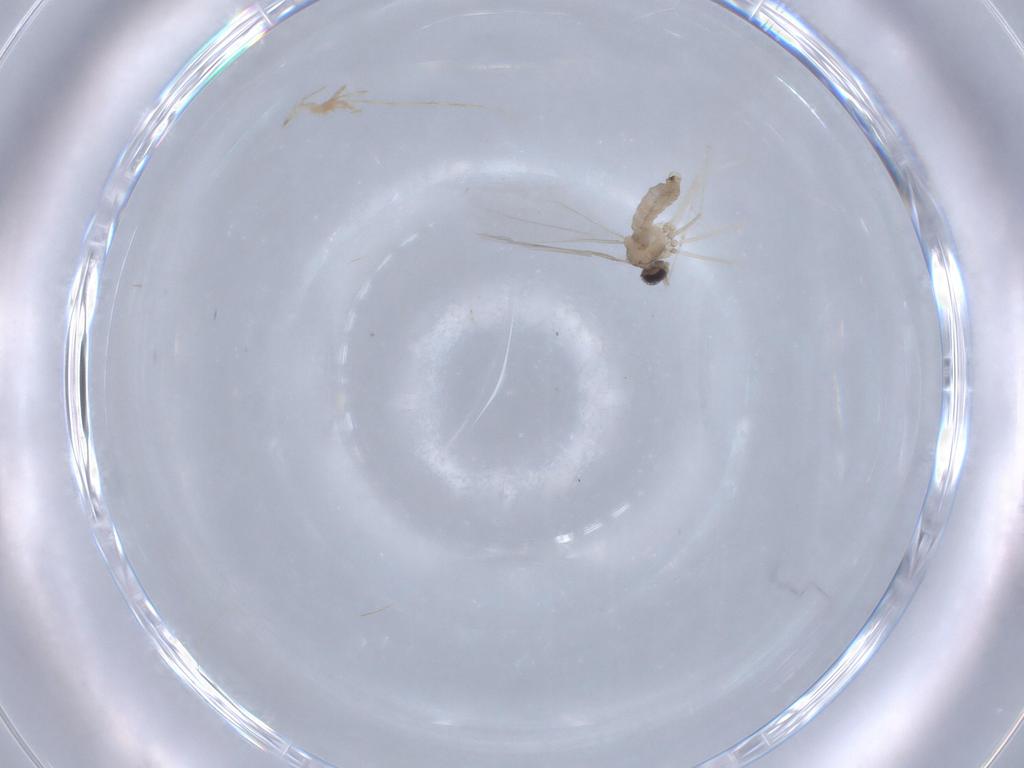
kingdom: Animalia
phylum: Arthropoda
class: Insecta
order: Diptera
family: Cecidomyiidae
